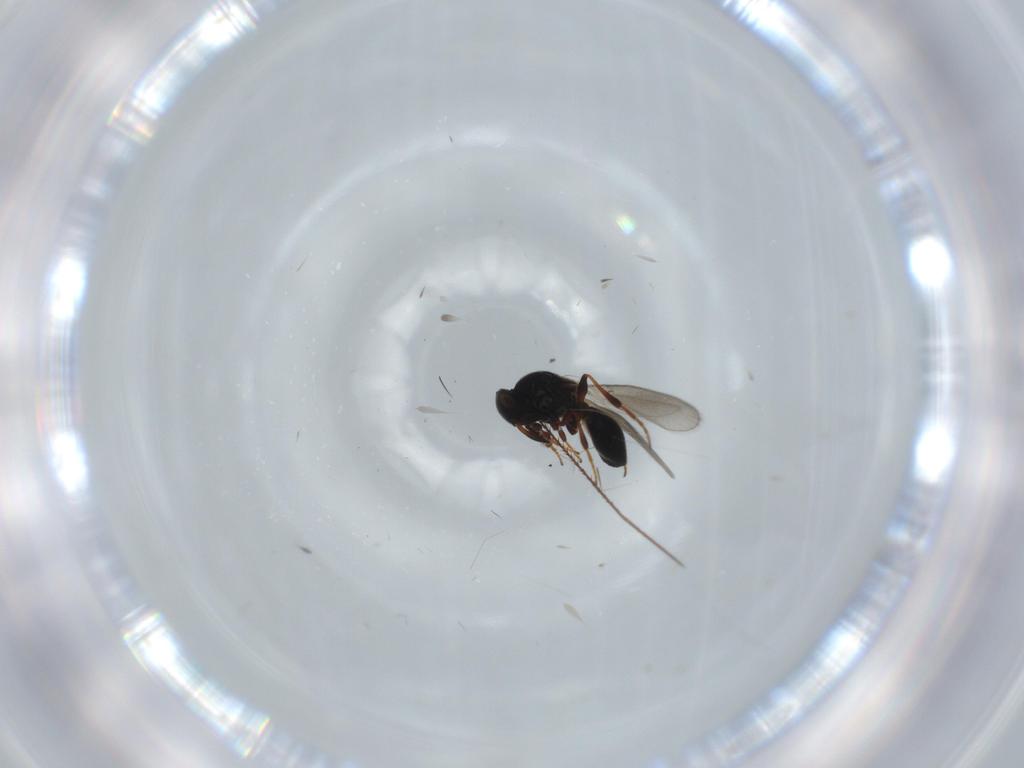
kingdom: Animalia
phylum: Arthropoda
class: Insecta
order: Hymenoptera
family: Platygastridae
